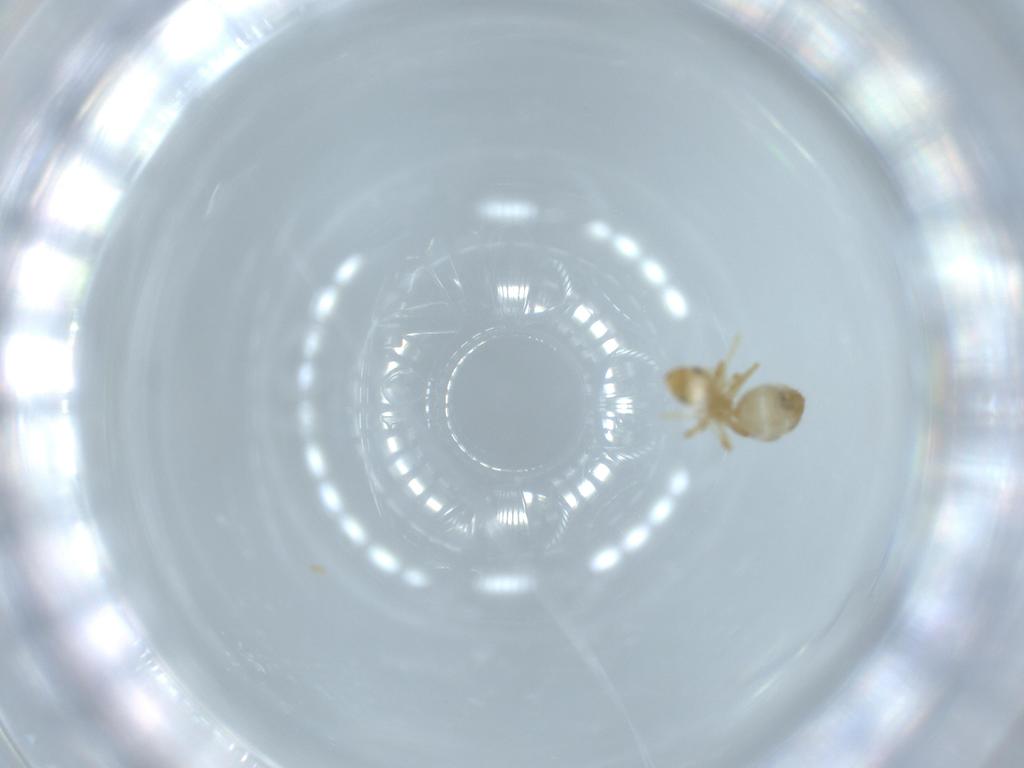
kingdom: Animalia
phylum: Arthropoda
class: Insecta
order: Hymenoptera
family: Formicidae
